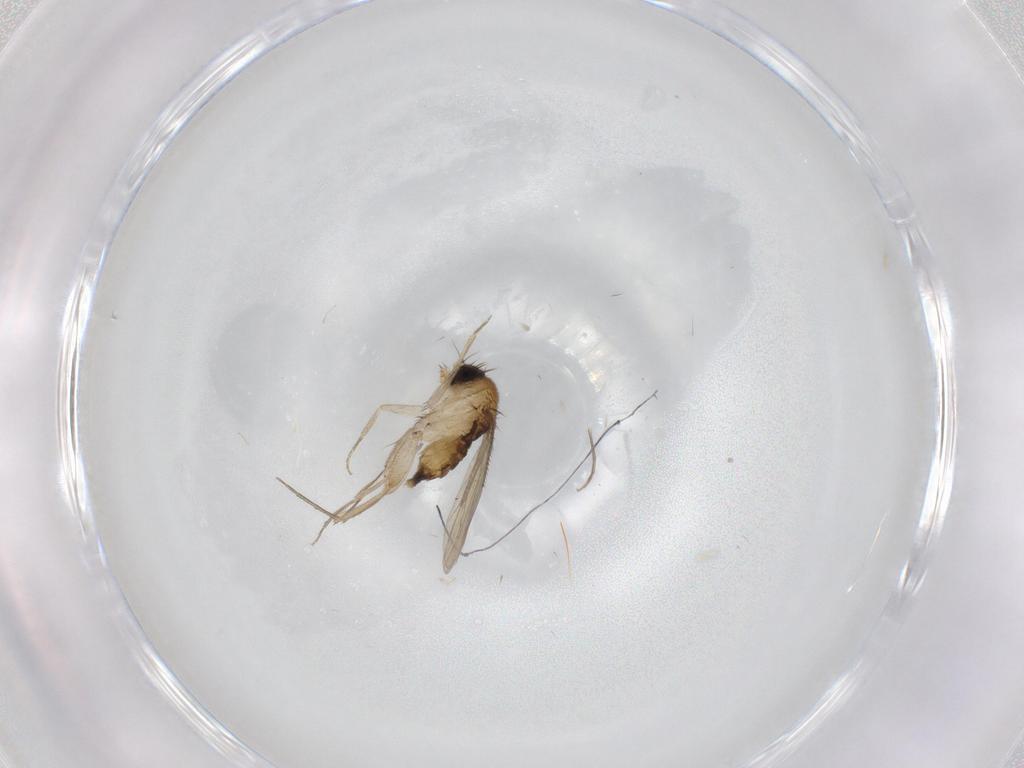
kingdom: Animalia
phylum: Arthropoda
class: Insecta
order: Diptera
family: Phoridae
